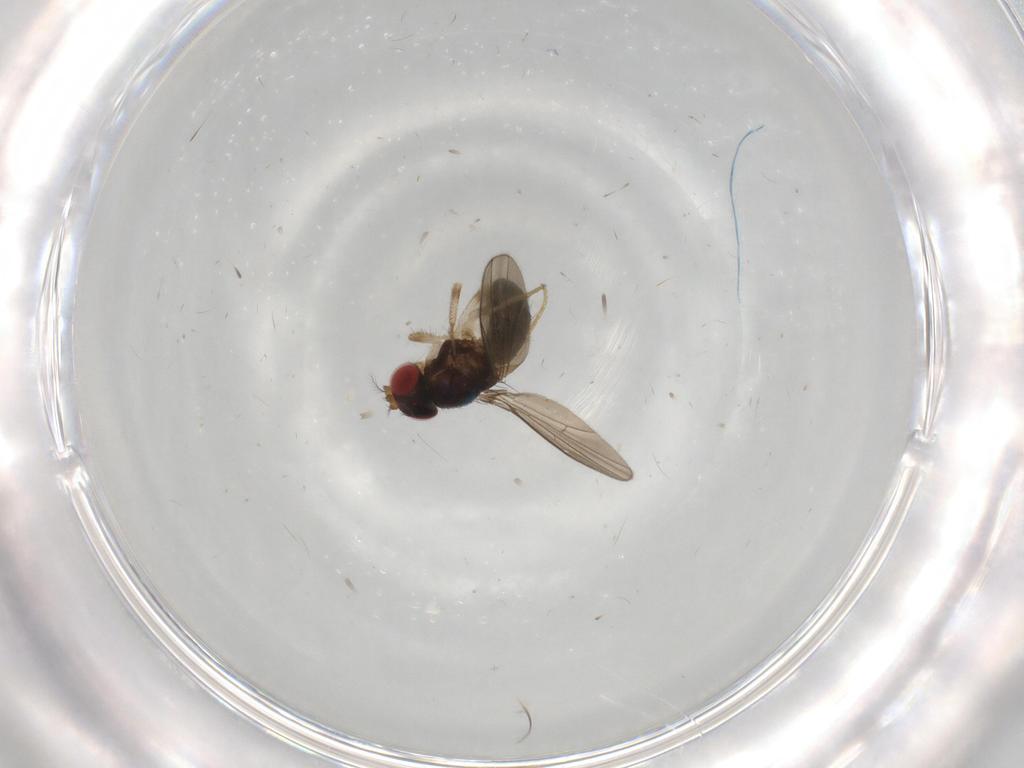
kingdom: Animalia
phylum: Arthropoda
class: Insecta
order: Diptera
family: Drosophilidae
